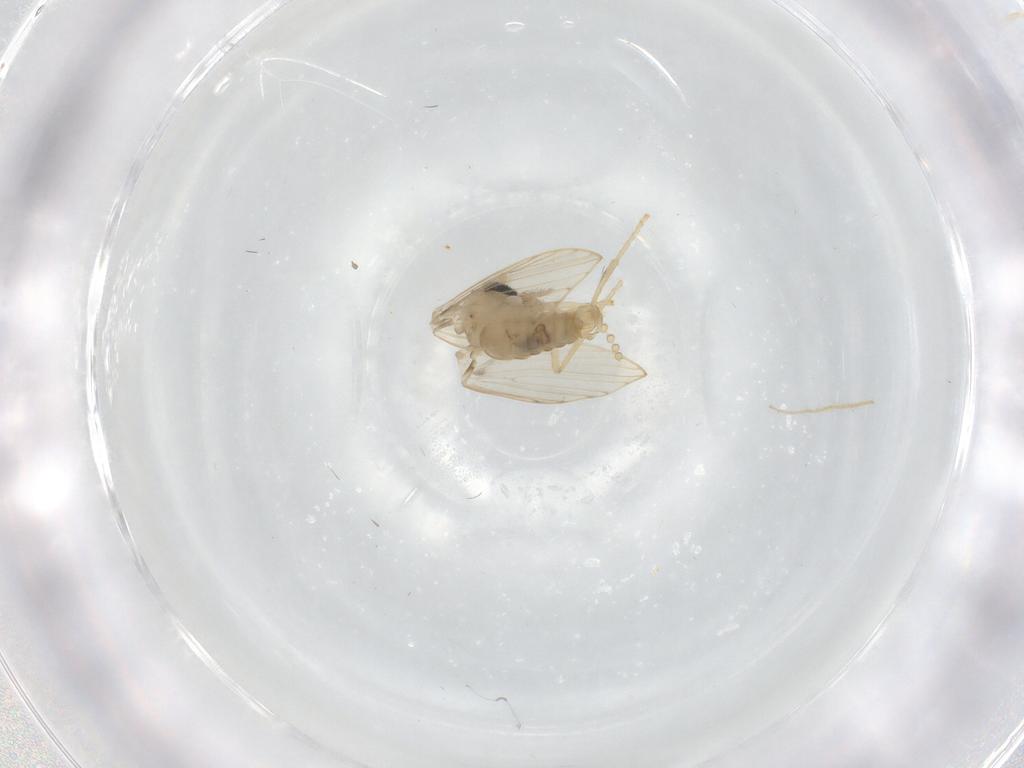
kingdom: Animalia
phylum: Arthropoda
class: Insecta
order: Diptera
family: Psychodidae
